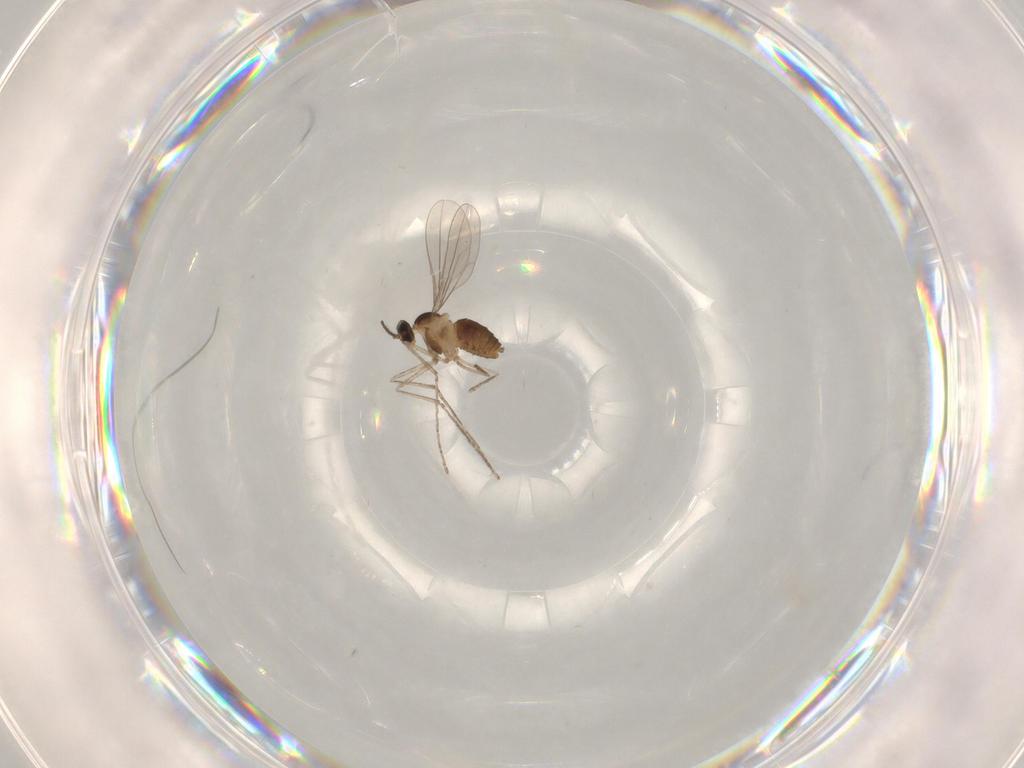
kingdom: Animalia
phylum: Arthropoda
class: Insecta
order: Diptera
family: Cecidomyiidae
